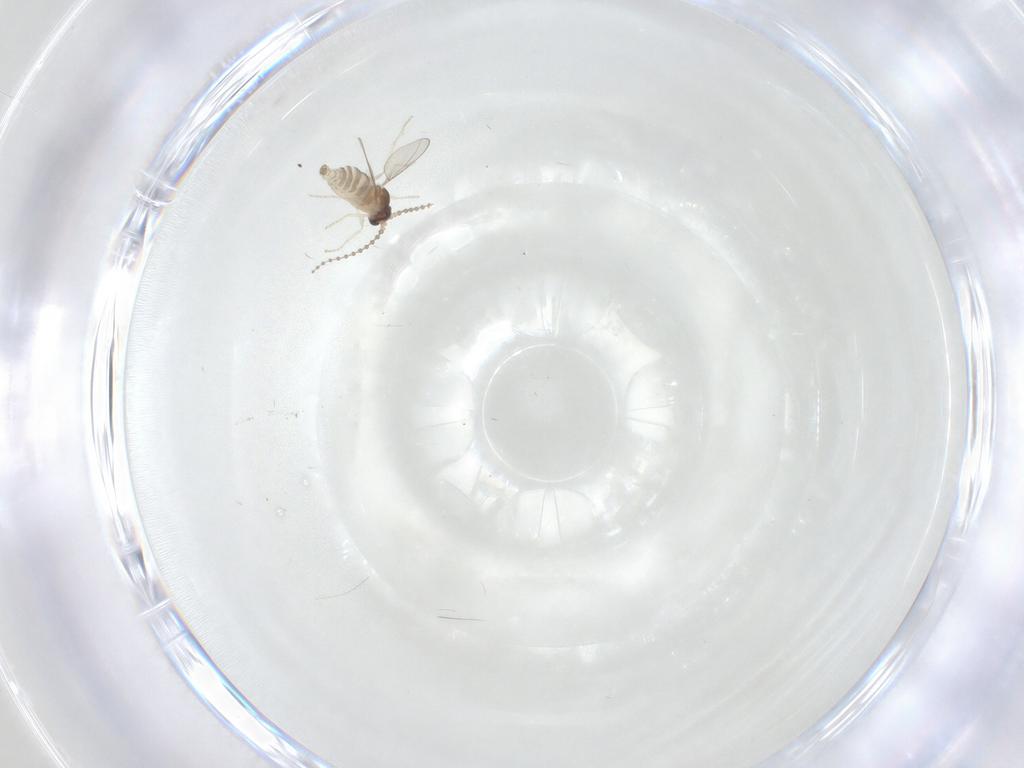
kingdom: Animalia
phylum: Arthropoda
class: Insecta
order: Diptera
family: Cecidomyiidae
